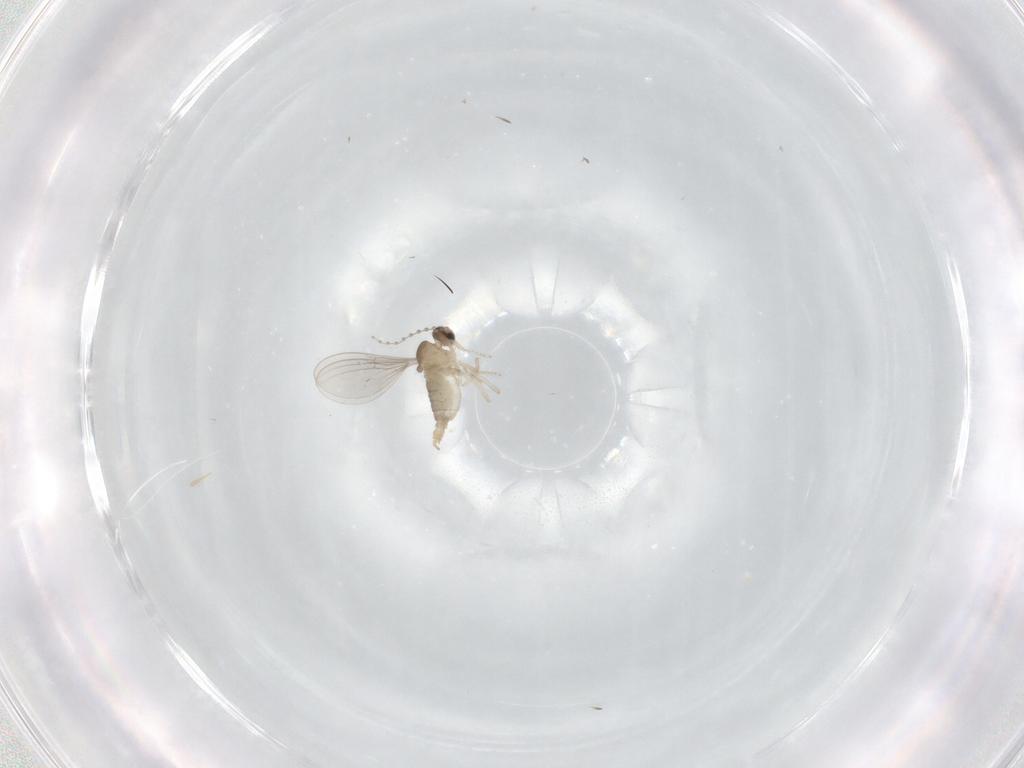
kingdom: Animalia
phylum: Arthropoda
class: Insecta
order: Diptera
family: Cecidomyiidae
